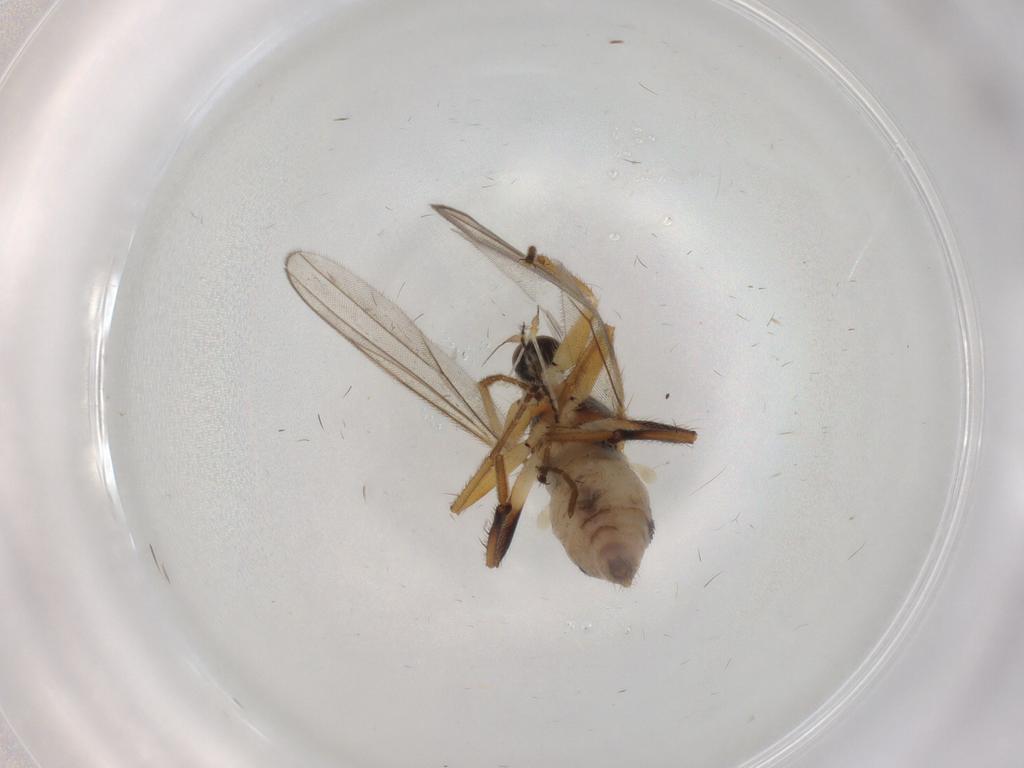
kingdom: Animalia
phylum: Arthropoda
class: Insecta
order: Diptera
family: Hybotidae
